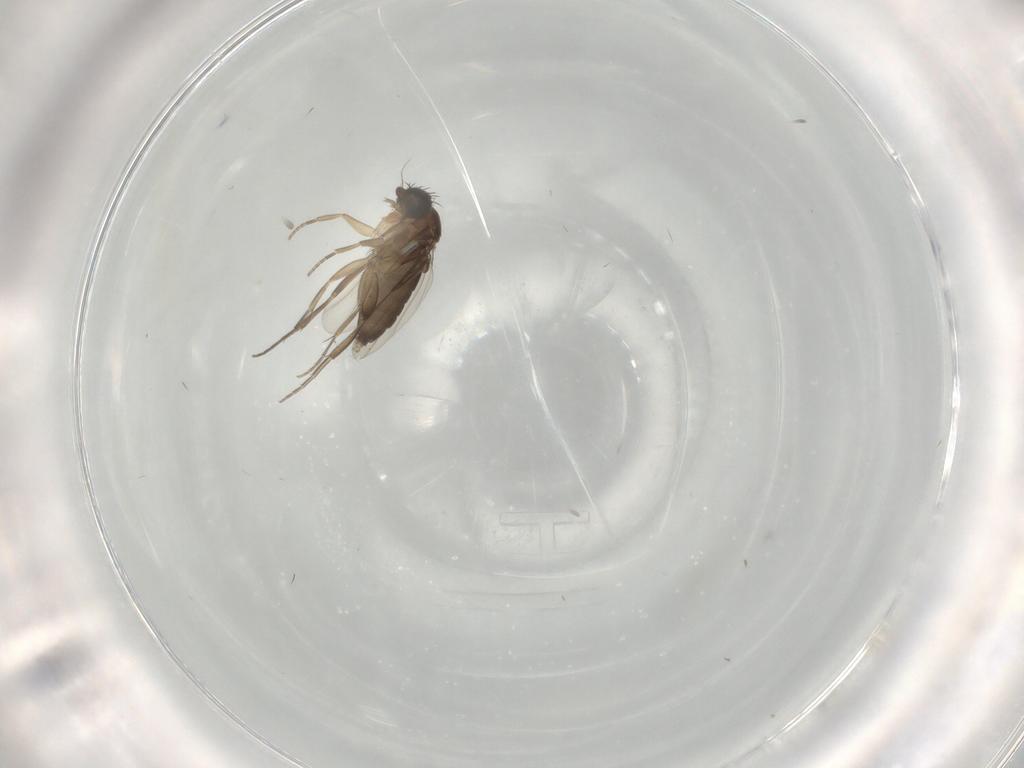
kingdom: Animalia
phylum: Arthropoda
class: Insecta
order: Diptera
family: Phoridae
